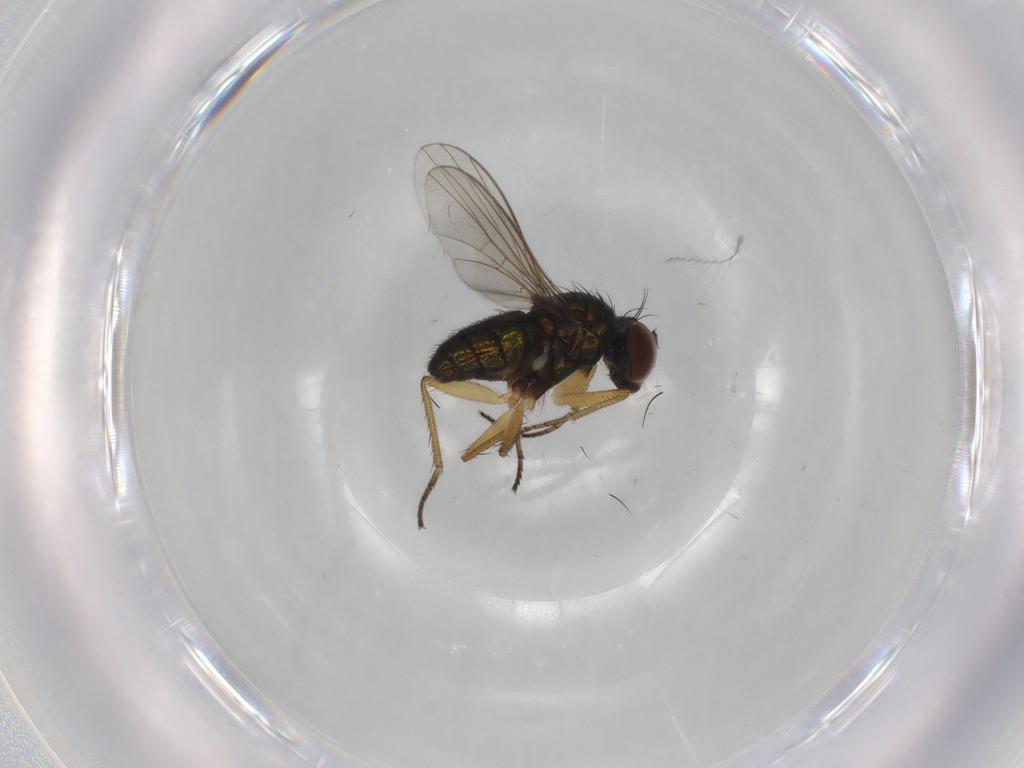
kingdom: Animalia
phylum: Arthropoda
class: Insecta
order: Diptera
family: Dolichopodidae
